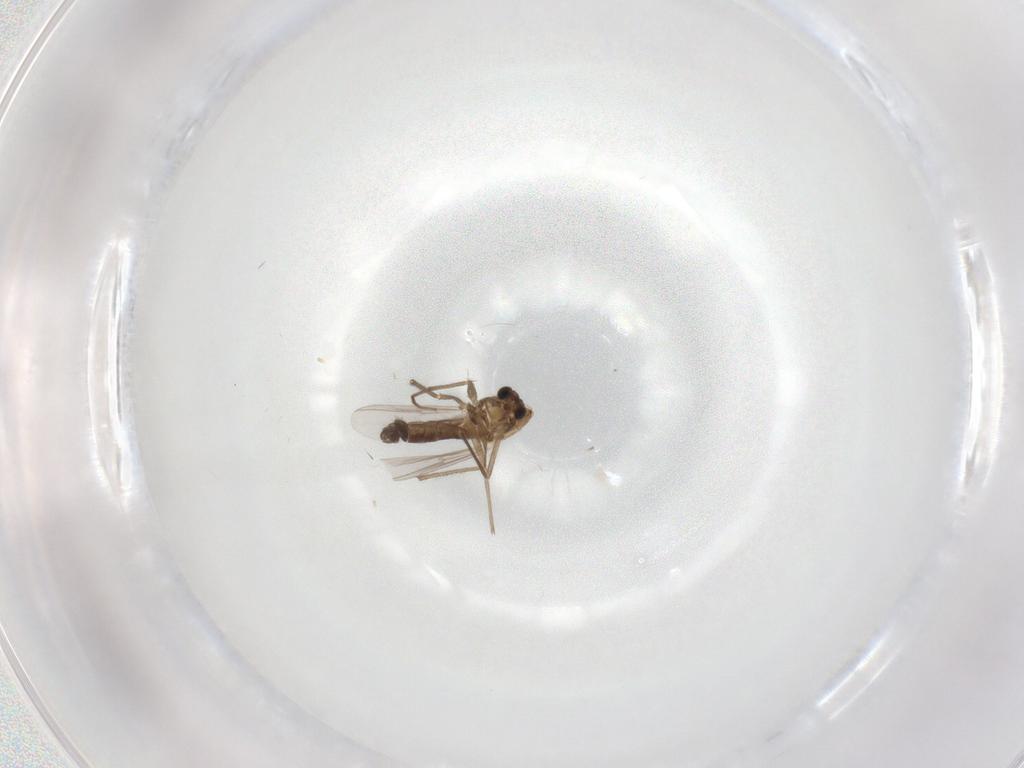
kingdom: Animalia
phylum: Arthropoda
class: Insecta
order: Diptera
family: Chironomidae
